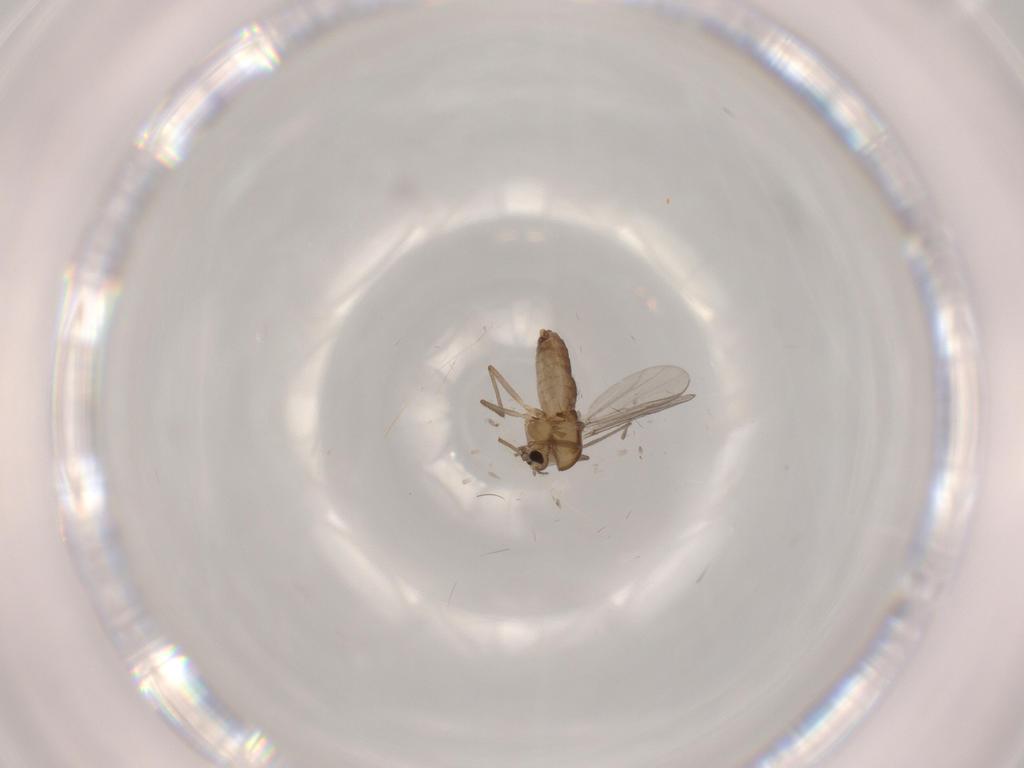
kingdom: Animalia
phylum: Arthropoda
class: Insecta
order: Diptera
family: Chironomidae
